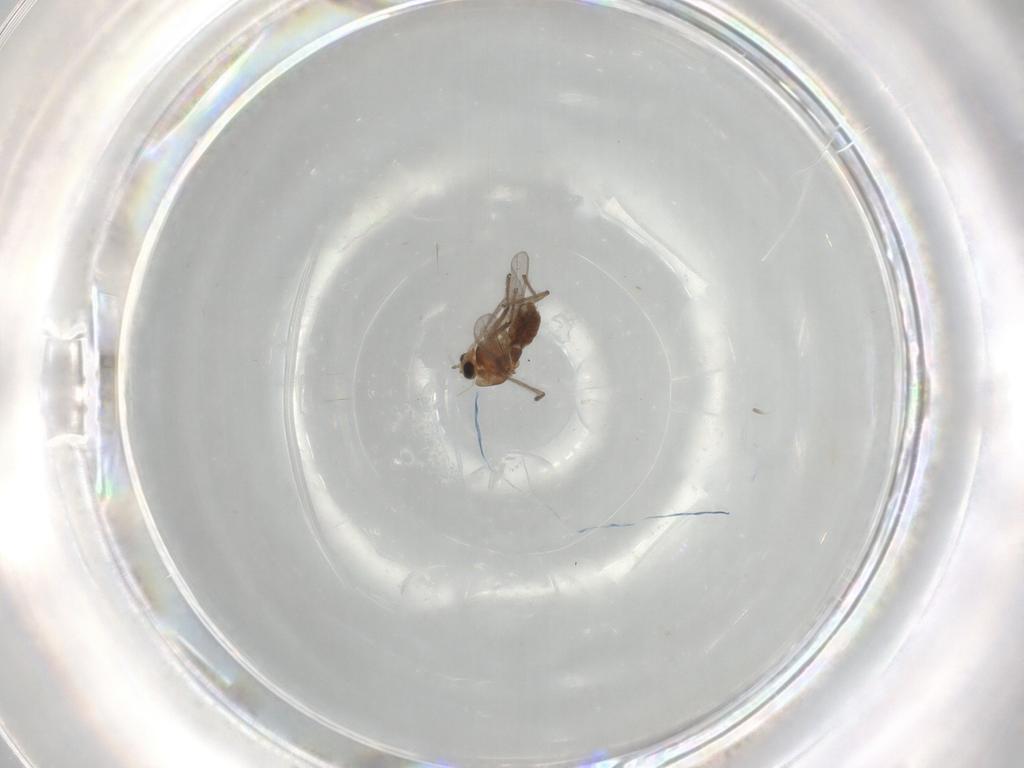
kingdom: Animalia
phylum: Arthropoda
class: Insecta
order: Diptera
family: Chironomidae
